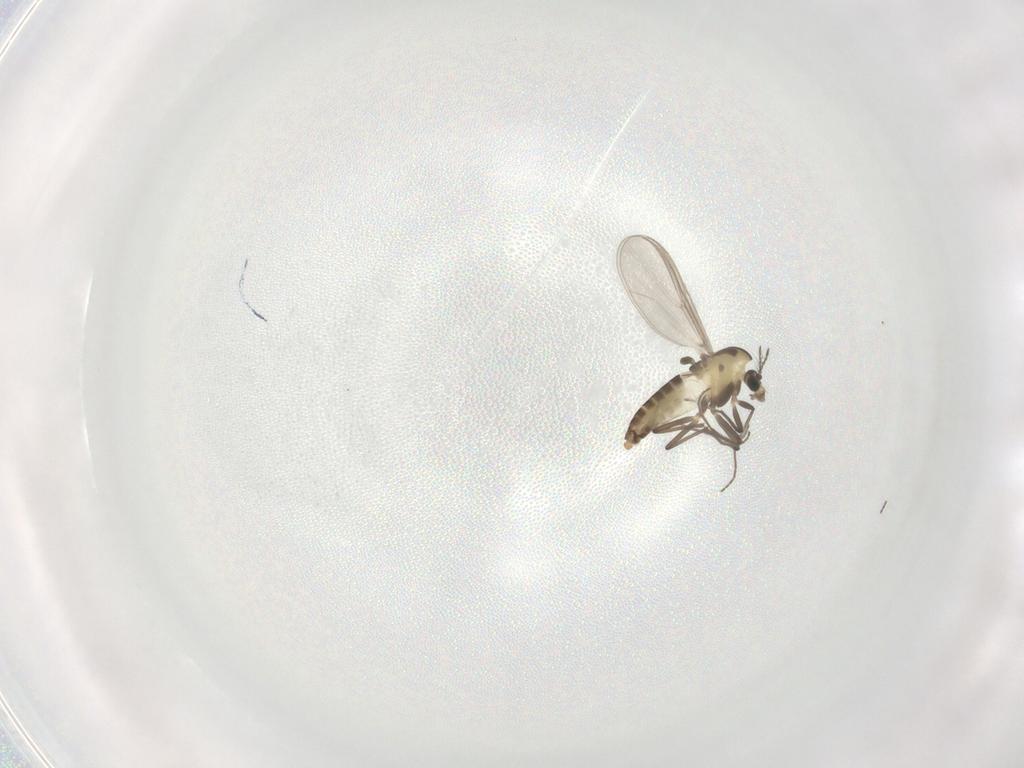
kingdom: Animalia
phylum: Arthropoda
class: Insecta
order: Diptera
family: Chironomidae
